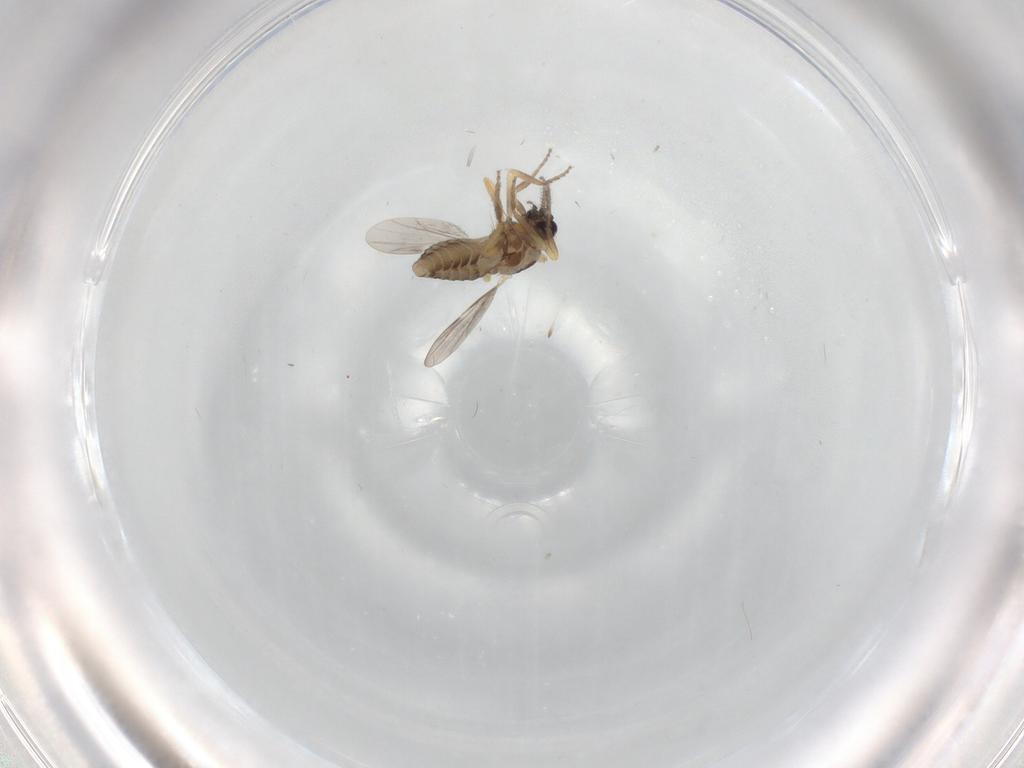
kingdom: Animalia
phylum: Arthropoda
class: Insecta
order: Diptera
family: Ceratopogonidae
